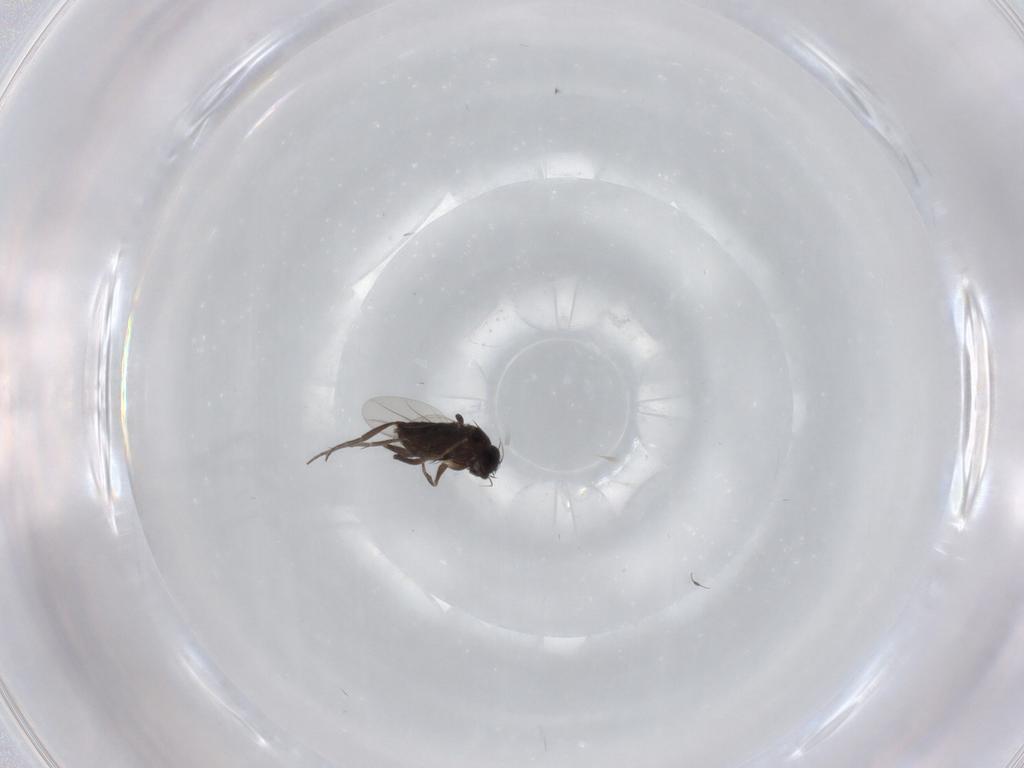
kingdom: Animalia
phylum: Arthropoda
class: Insecta
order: Diptera
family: Phoridae
